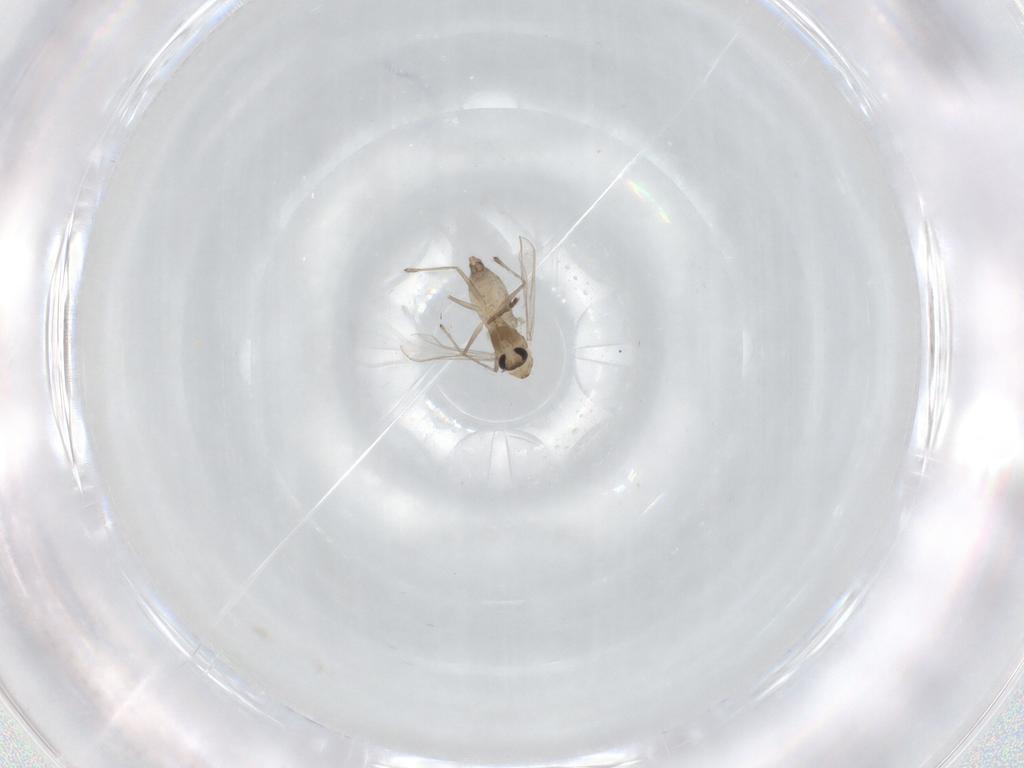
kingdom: Animalia
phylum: Arthropoda
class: Insecta
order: Diptera
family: Chironomidae
